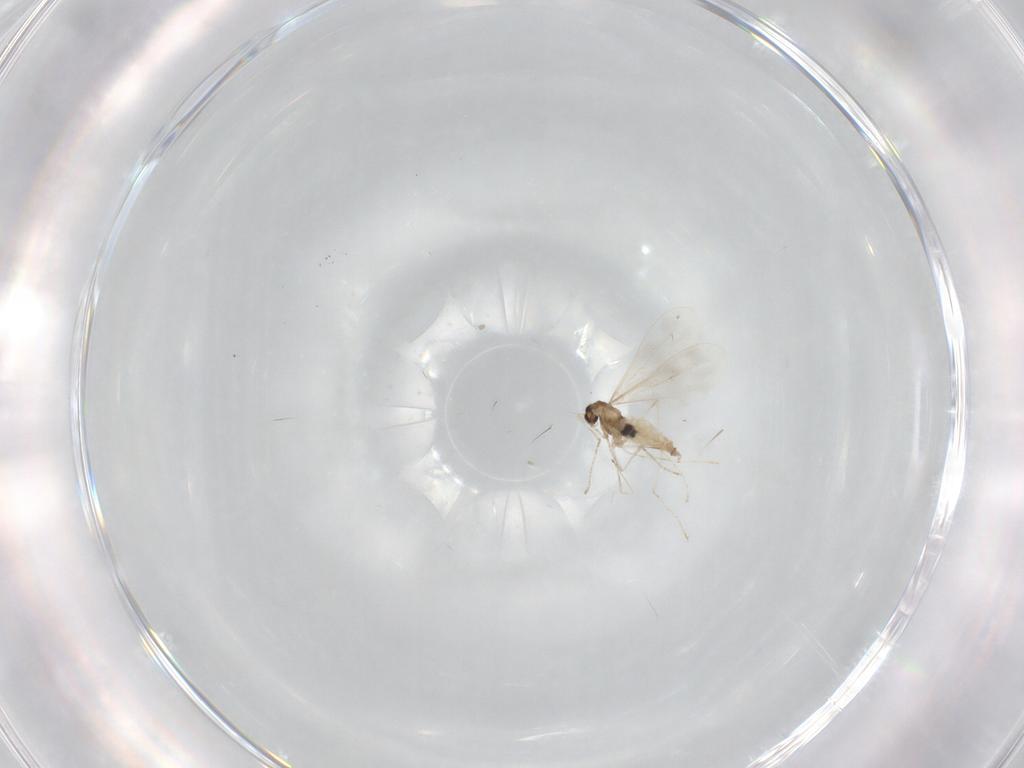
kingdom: Animalia
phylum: Arthropoda
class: Insecta
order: Diptera
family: Cecidomyiidae
